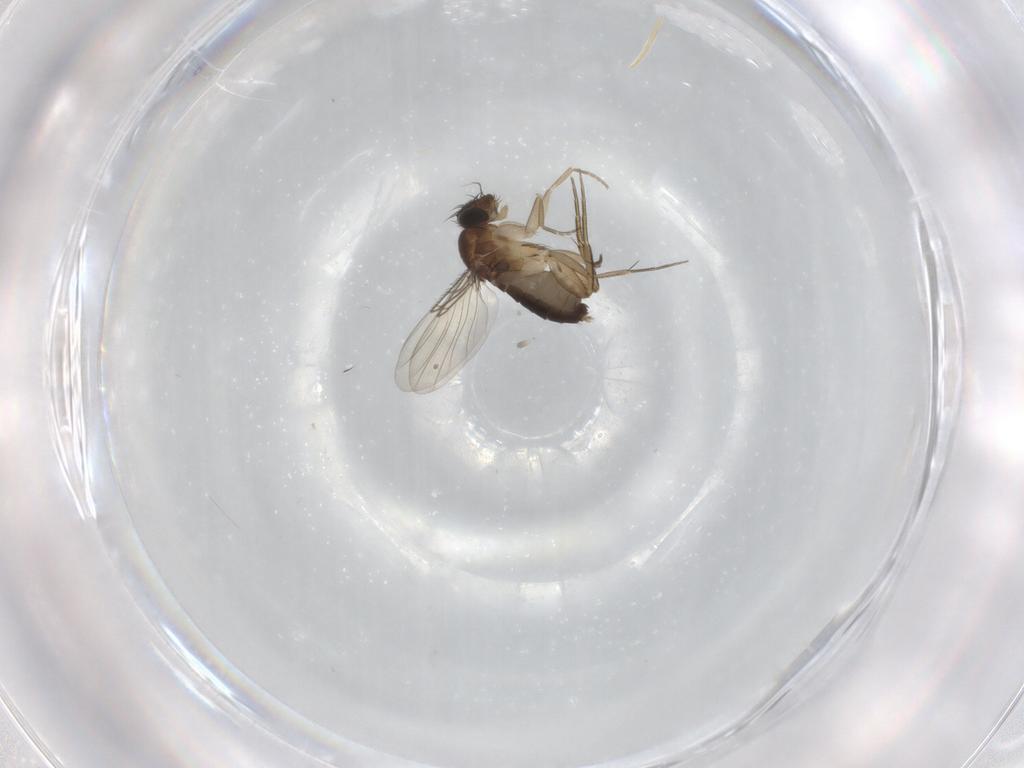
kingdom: Animalia
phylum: Arthropoda
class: Insecta
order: Diptera
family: Phoridae
